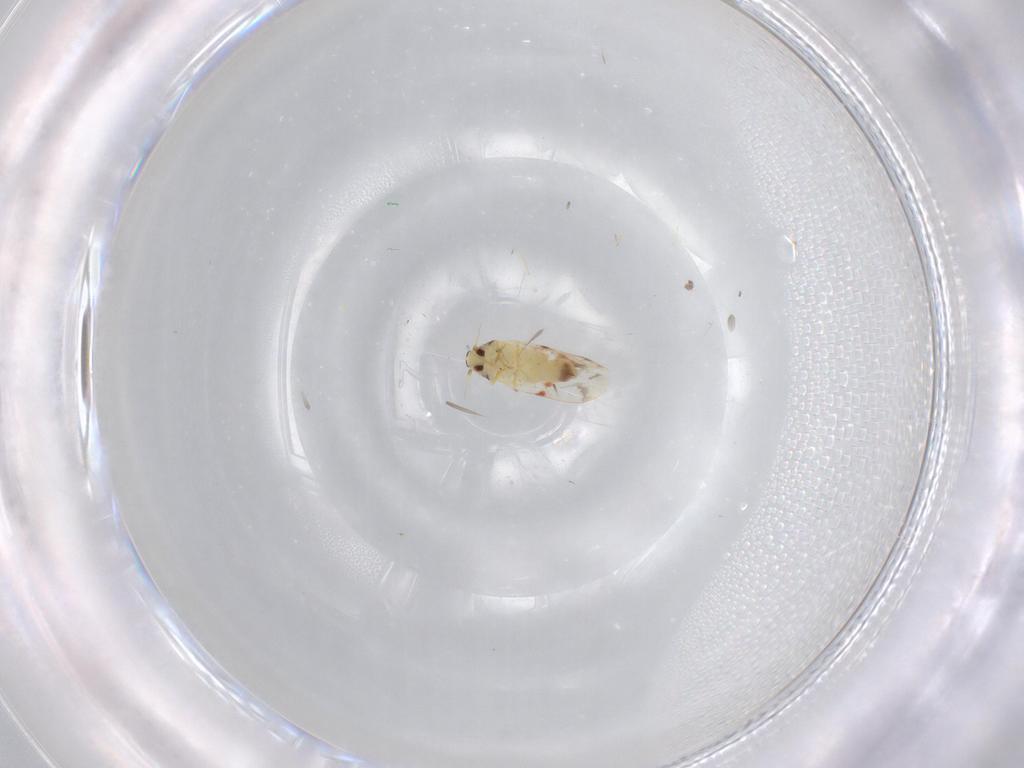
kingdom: Animalia
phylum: Arthropoda
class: Insecta
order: Hemiptera
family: Aleyrodidae
